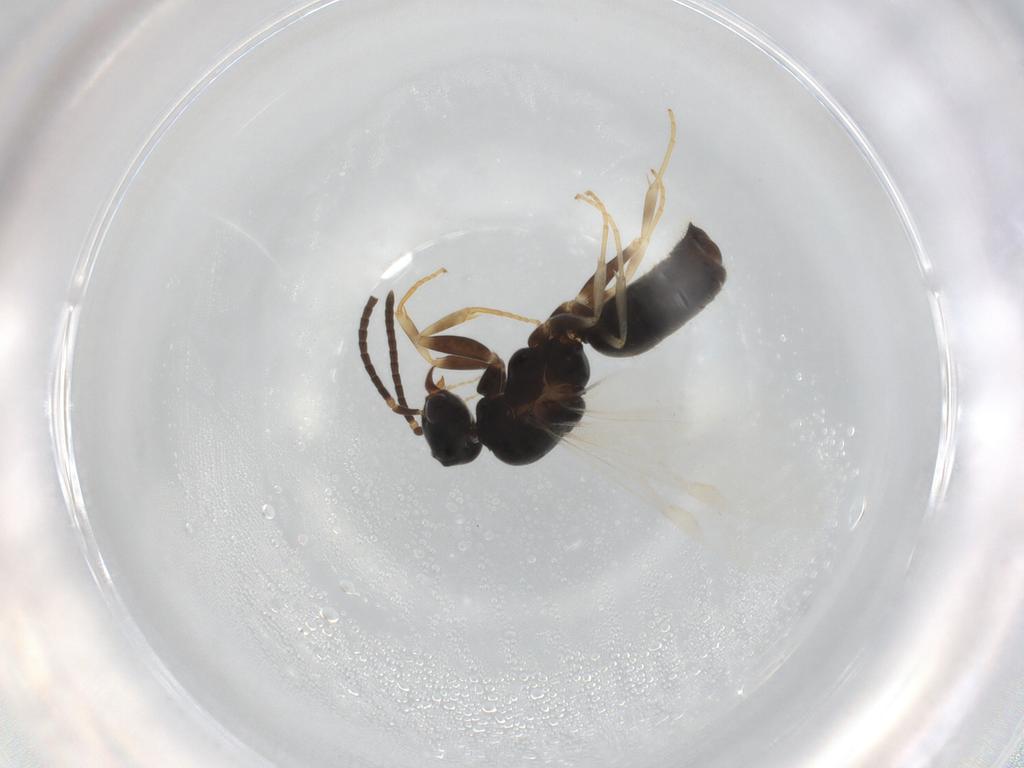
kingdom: Animalia
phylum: Arthropoda
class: Insecta
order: Hymenoptera
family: Formicidae
